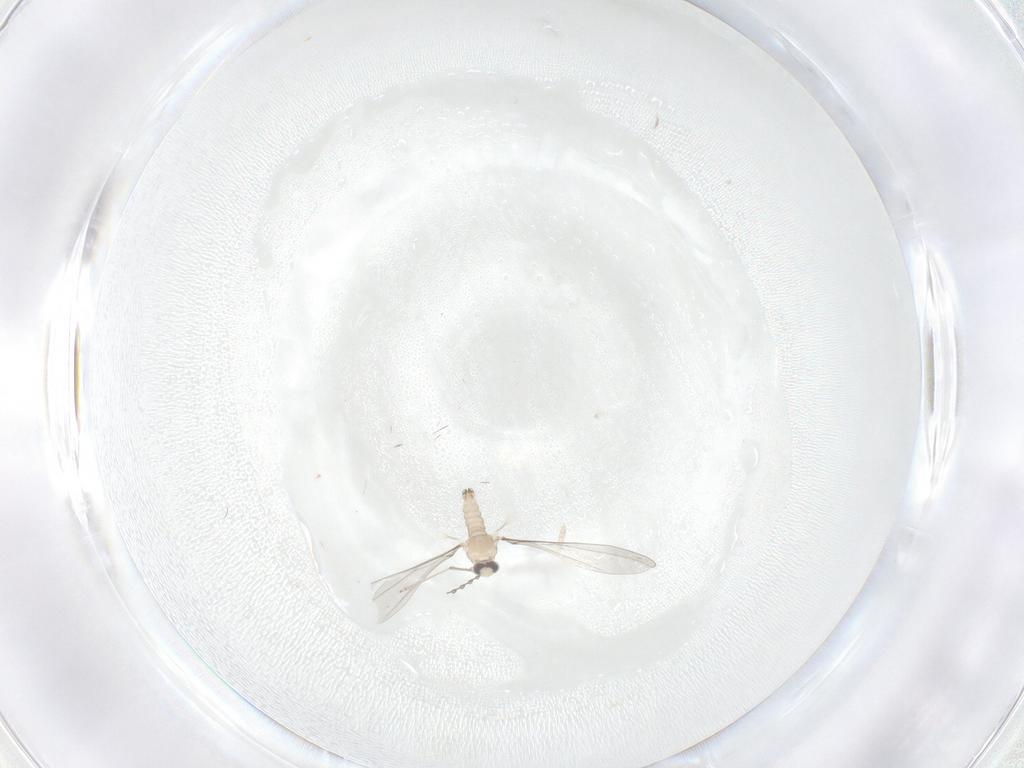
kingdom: Animalia
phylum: Arthropoda
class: Insecta
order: Diptera
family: Cecidomyiidae
